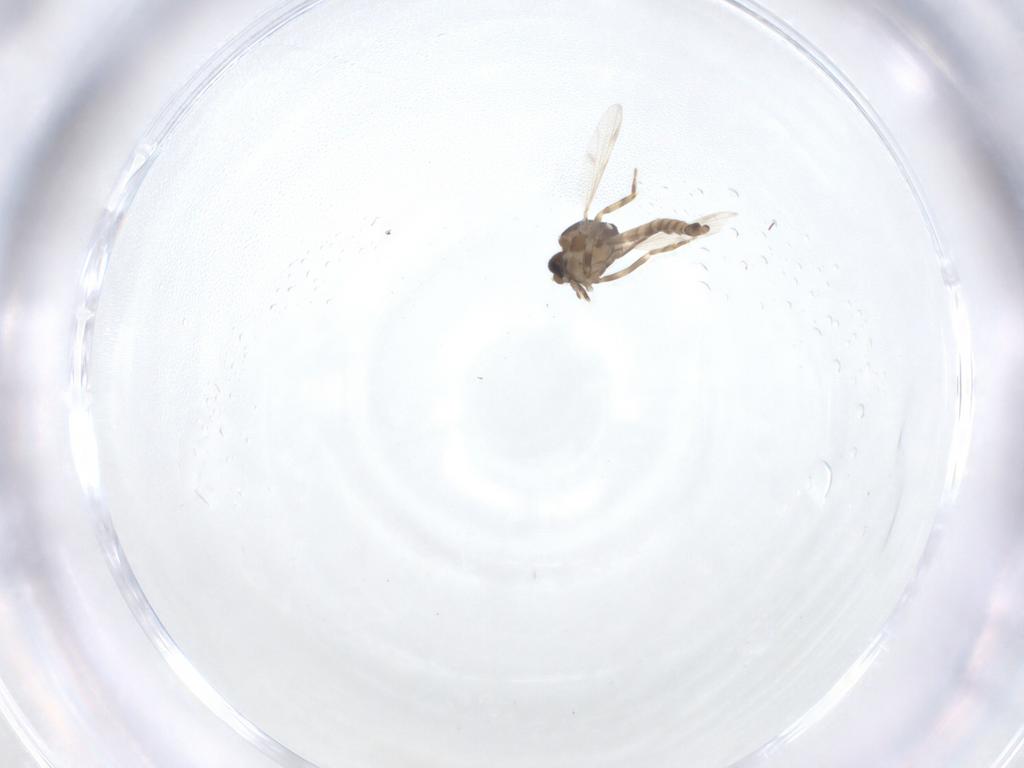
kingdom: Animalia
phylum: Arthropoda
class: Insecta
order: Diptera
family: Ceratopogonidae
